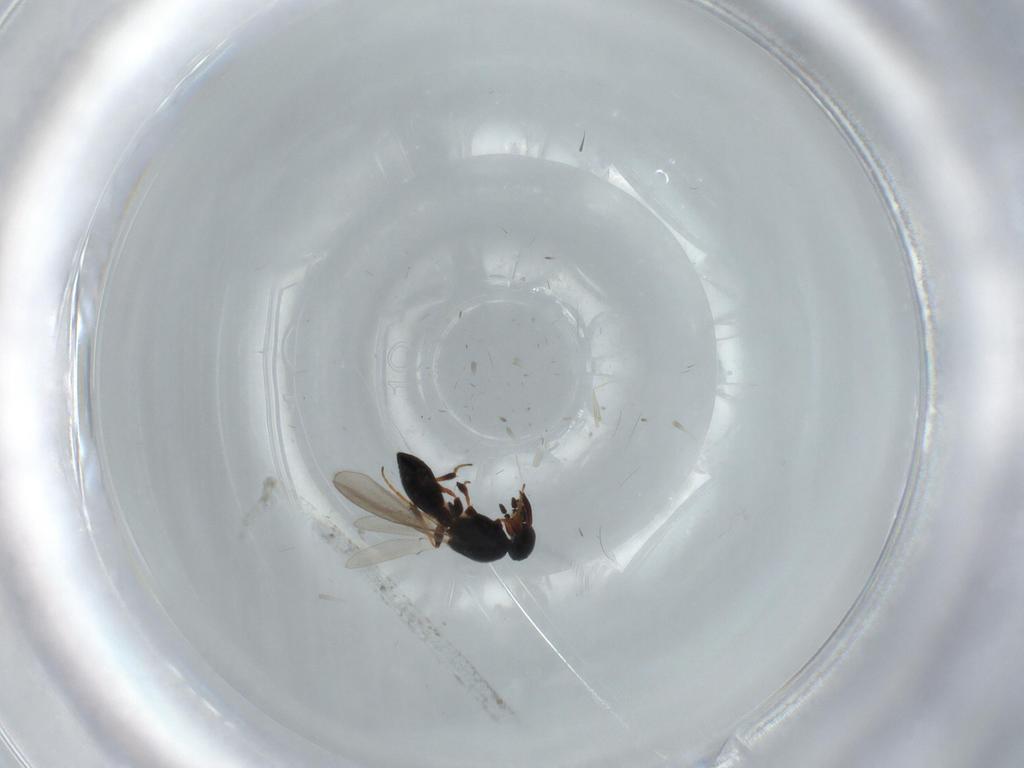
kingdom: Animalia
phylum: Arthropoda
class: Insecta
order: Hymenoptera
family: Platygastridae
